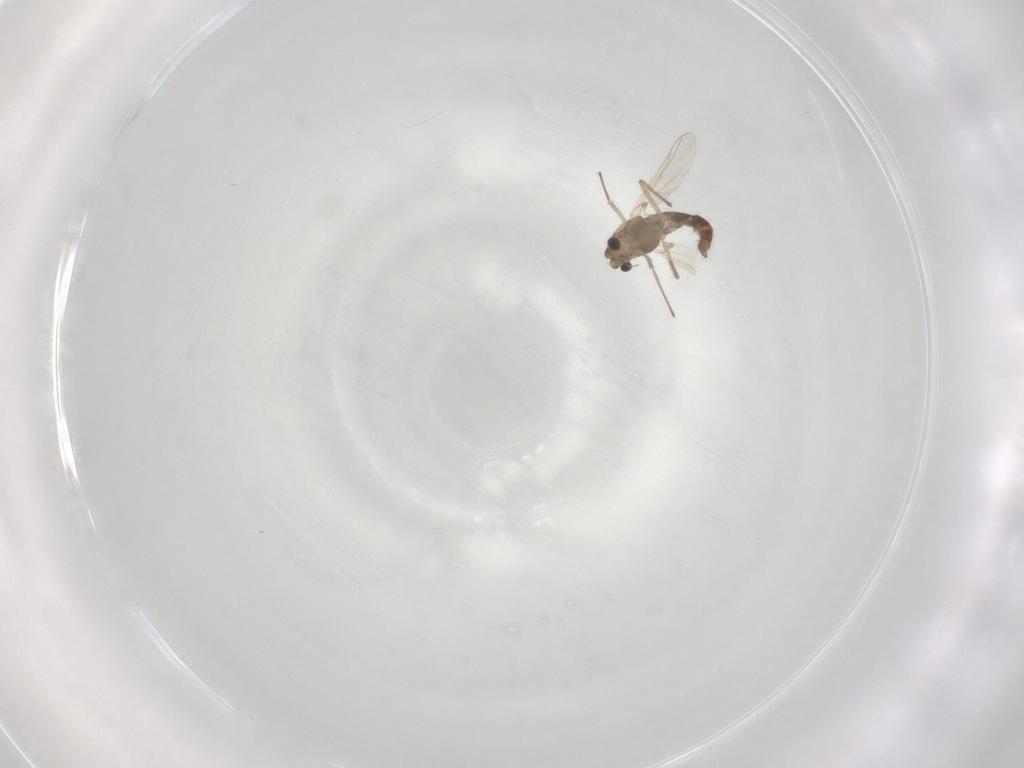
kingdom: Animalia
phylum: Arthropoda
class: Insecta
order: Diptera
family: Chironomidae
